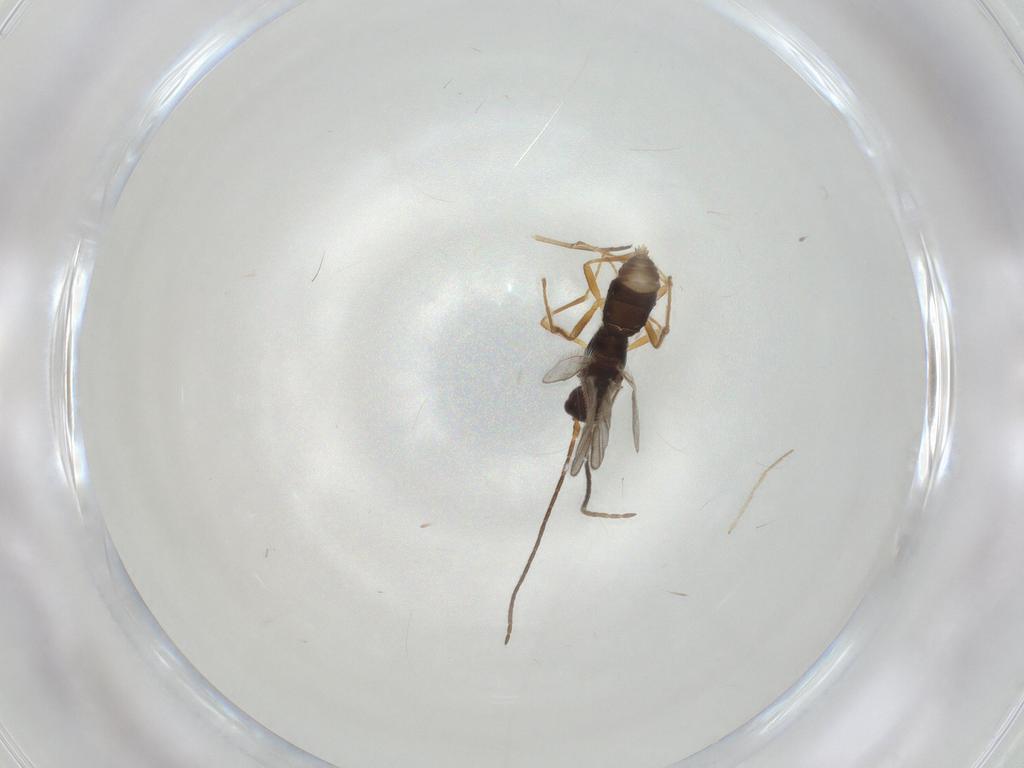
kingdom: Animalia
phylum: Arthropoda
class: Insecta
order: Hymenoptera
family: Braconidae
